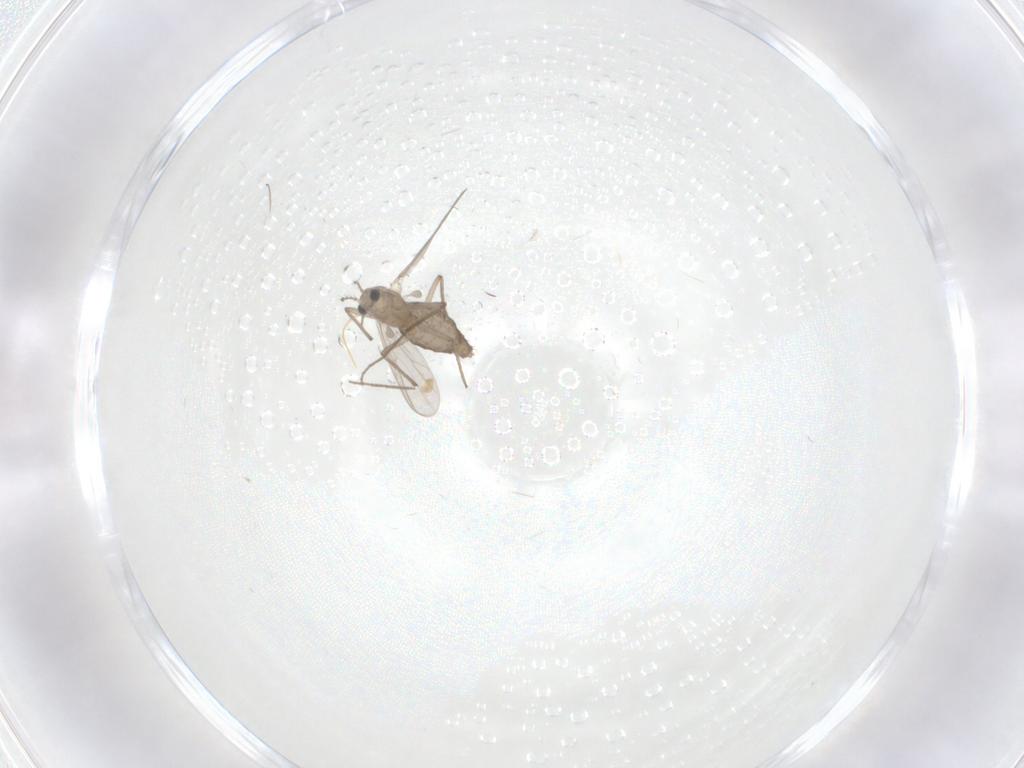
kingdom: Animalia
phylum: Arthropoda
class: Insecta
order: Diptera
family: Chironomidae
